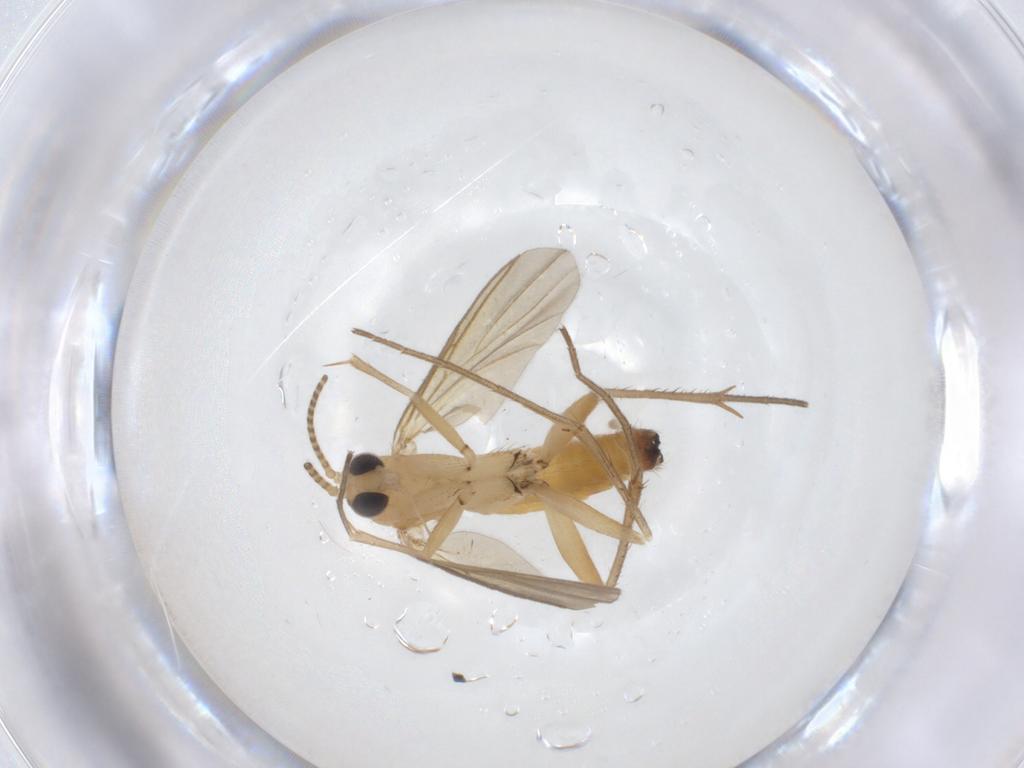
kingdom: Animalia
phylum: Arthropoda
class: Insecta
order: Diptera
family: Mycetophilidae
